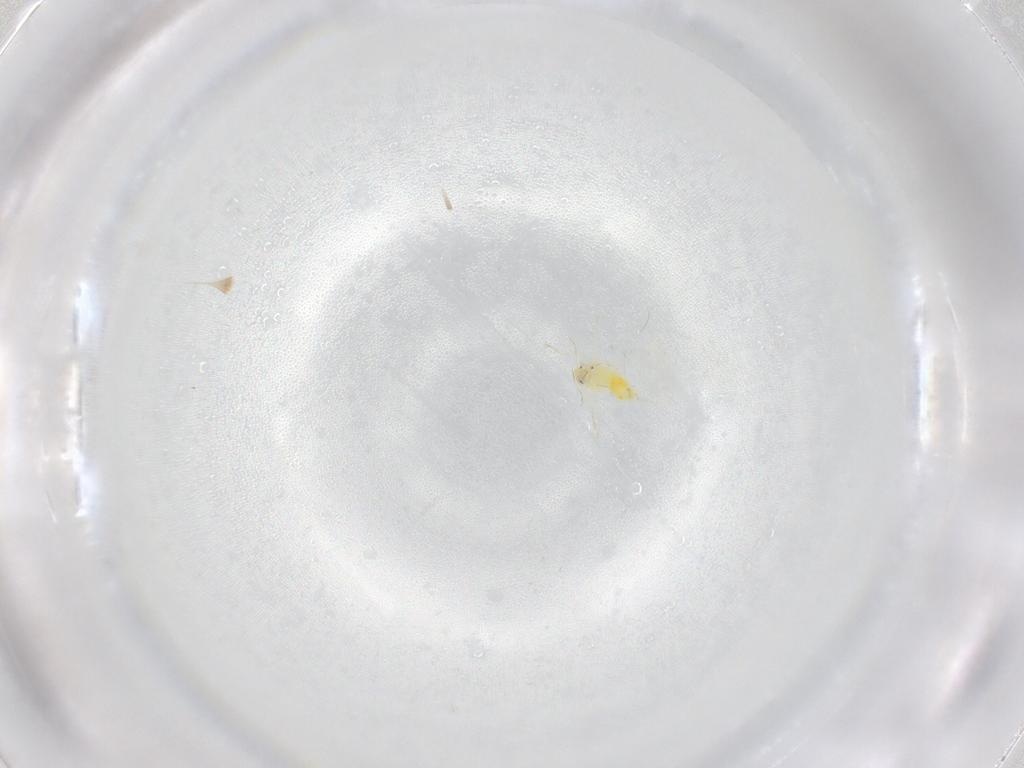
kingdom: Animalia
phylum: Arthropoda
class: Insecta
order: Hemiptera
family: Aleyrodidae
